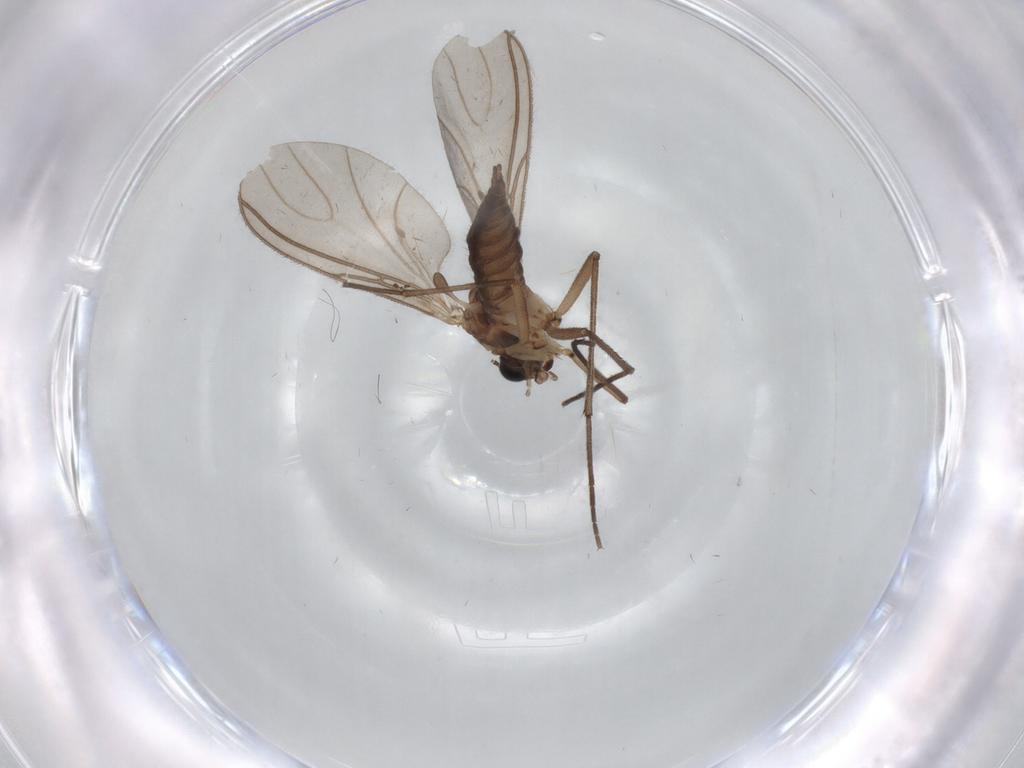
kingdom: Animalia
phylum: Arthropoda
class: Insecta
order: Diptera
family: Sciaridae
